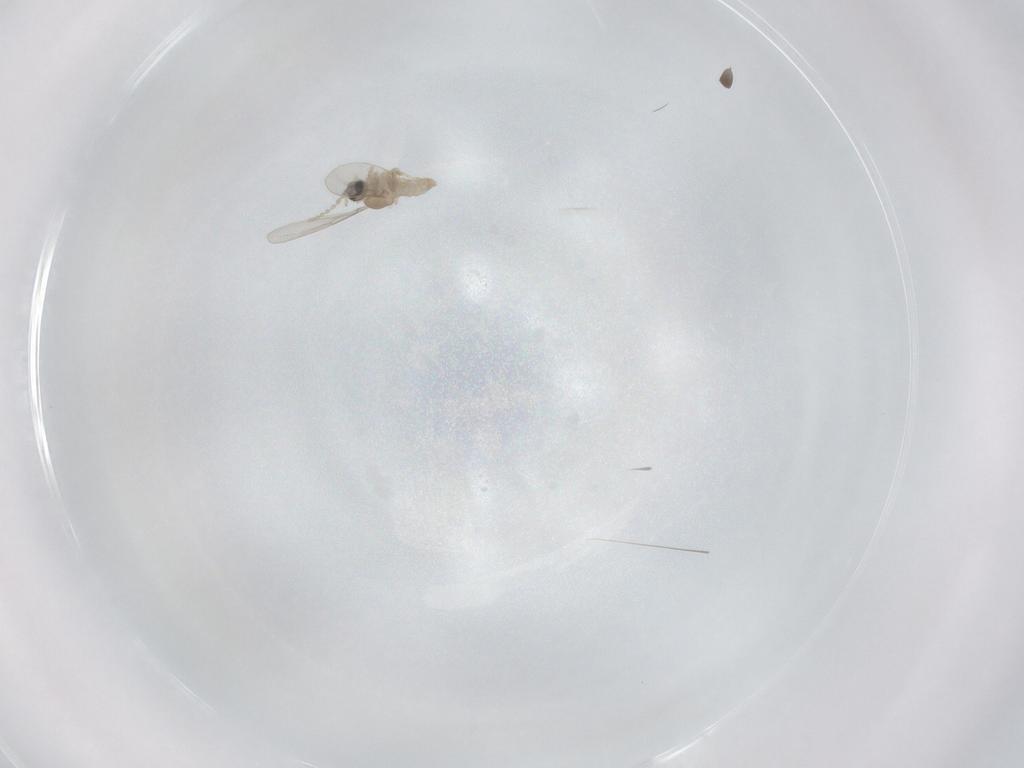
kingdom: Animalia
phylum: Arthropoda
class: Insecta
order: Diptera
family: Cecidomyiidae
